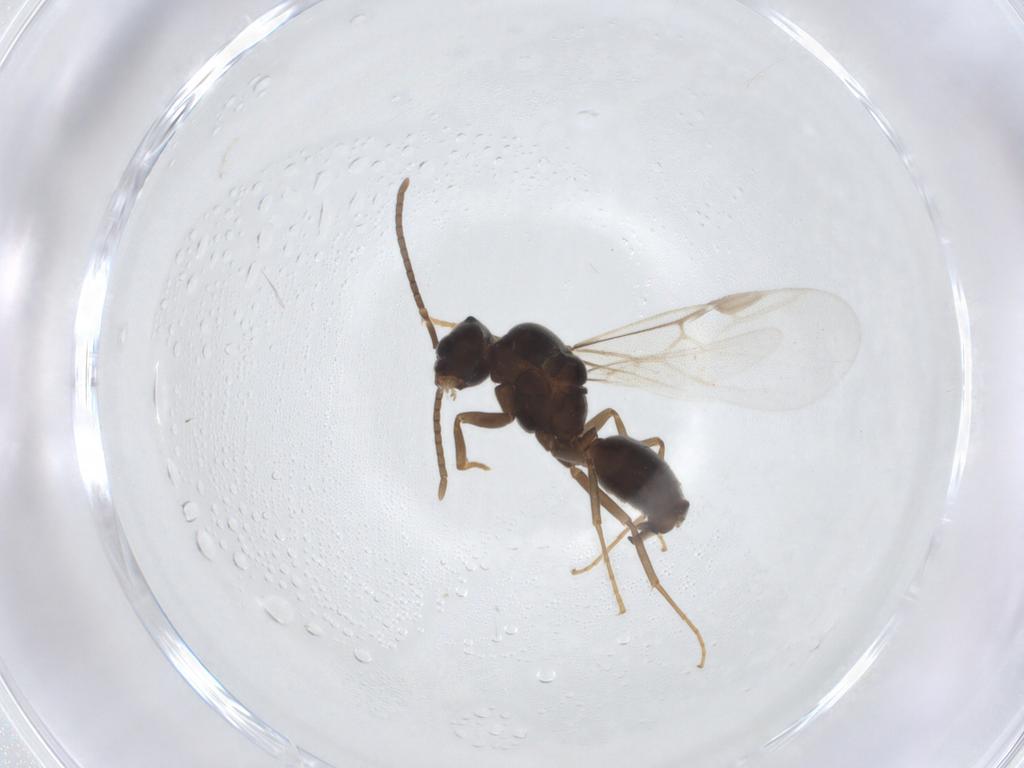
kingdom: Animalia
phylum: Arthropoda
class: Insecta
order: Hymenoptera
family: Formicidae
